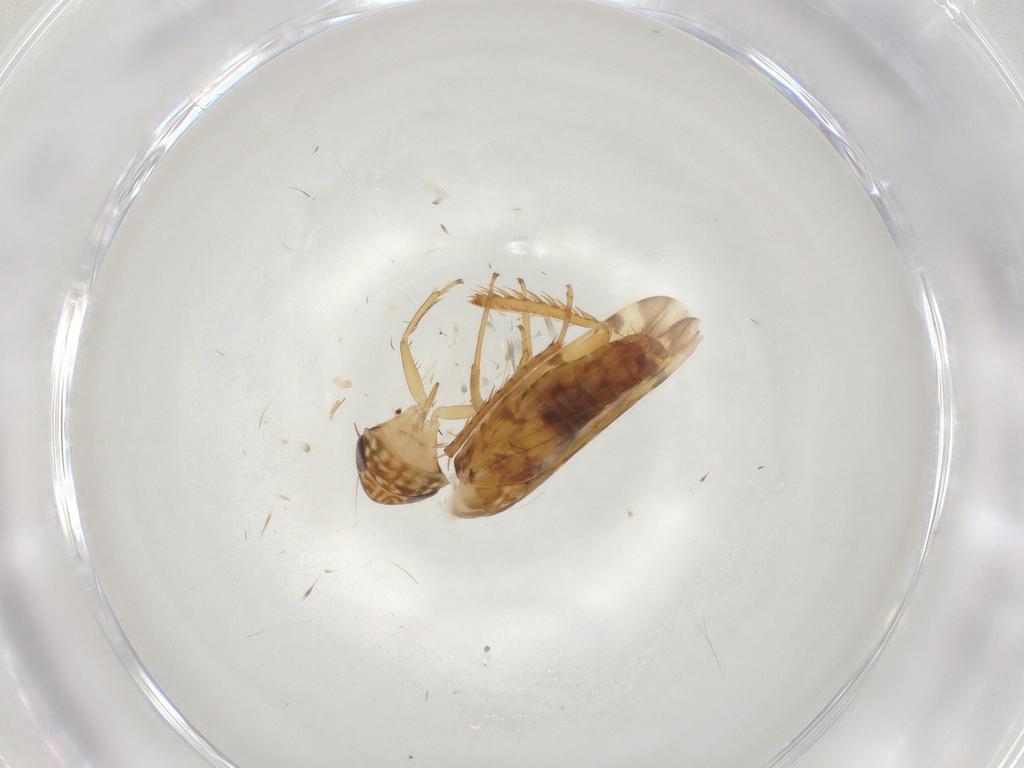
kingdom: Animalia
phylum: Arthropoda
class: Insecta
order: Hemiptera
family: Cicadellidae
